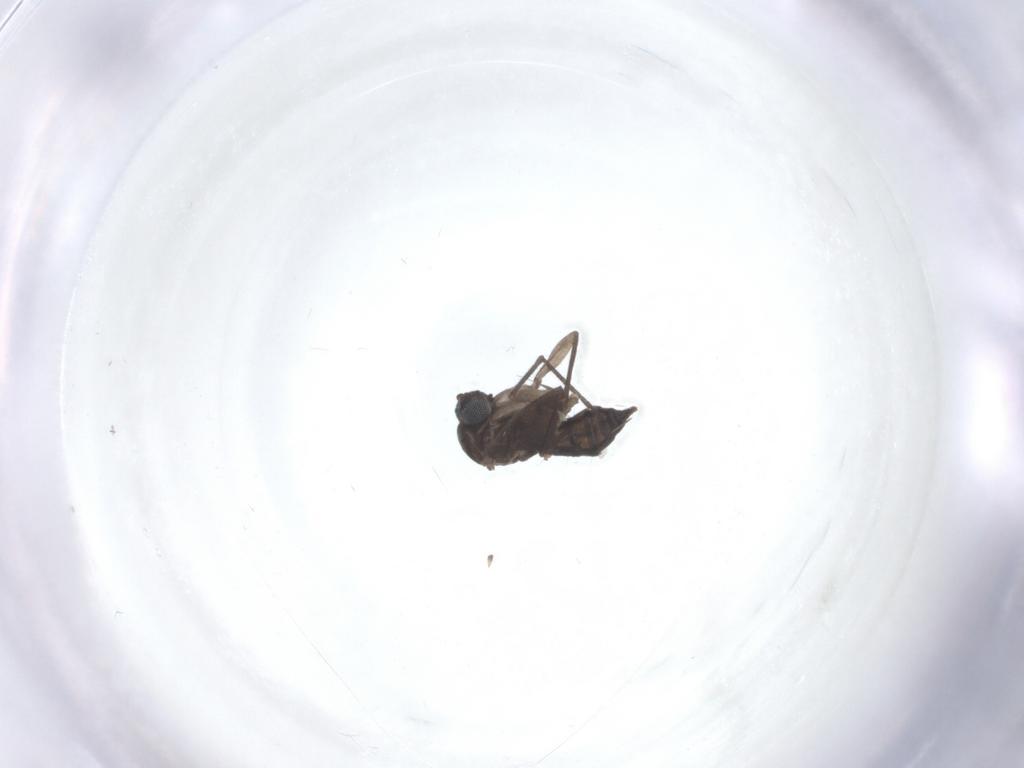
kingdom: Animalia
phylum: Arthropoda
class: Insecta
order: Diptera
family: Sciaridae
